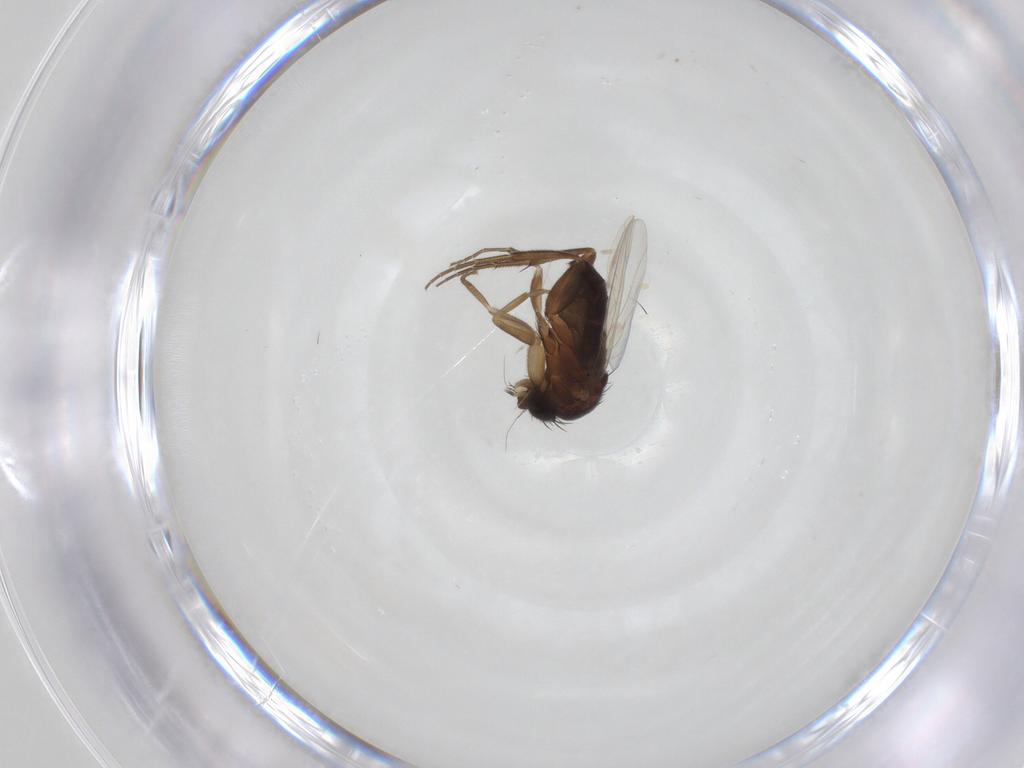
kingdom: Animalia
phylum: Arthropoda
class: Insecta
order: Diptera
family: Phoridae
